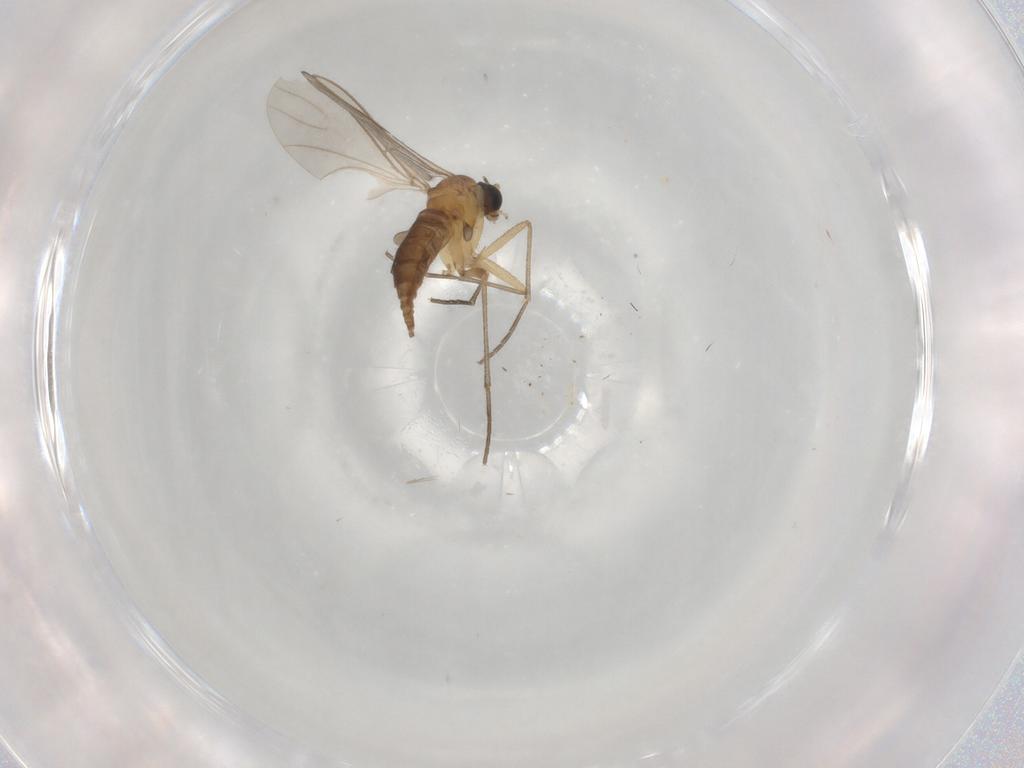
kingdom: Animalia
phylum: Arthropoda
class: Insecta
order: Diptera
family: Sciaridae
